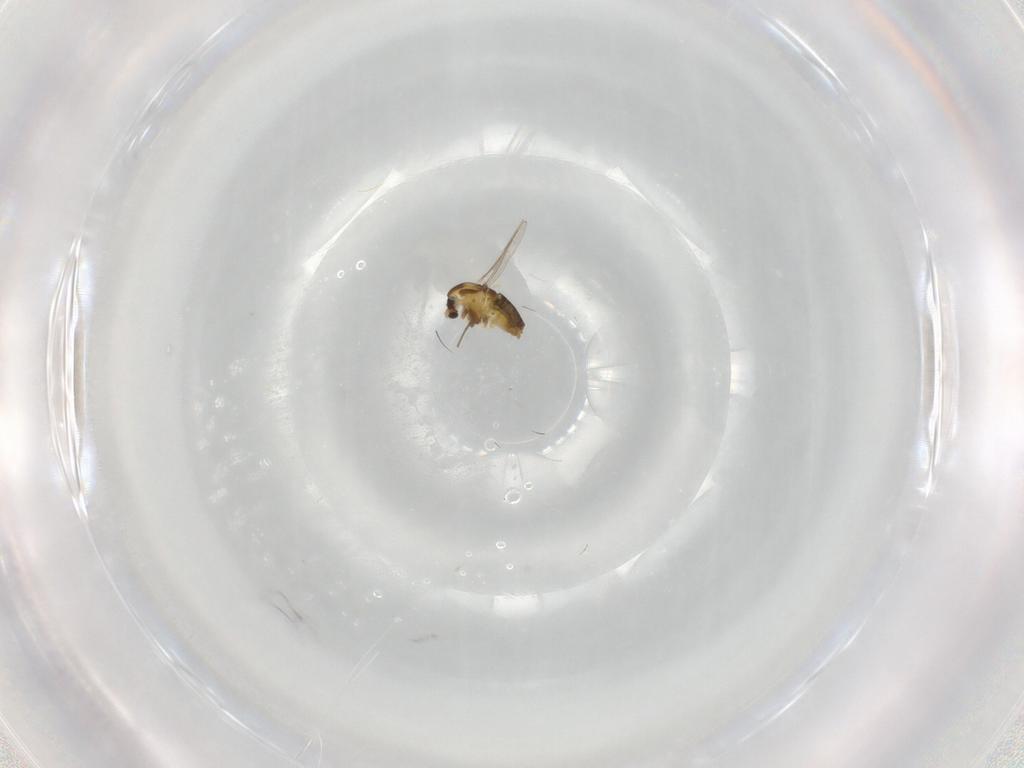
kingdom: Animalia
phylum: Arthropoda
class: Insecta
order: Diptera
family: Chironomidae
